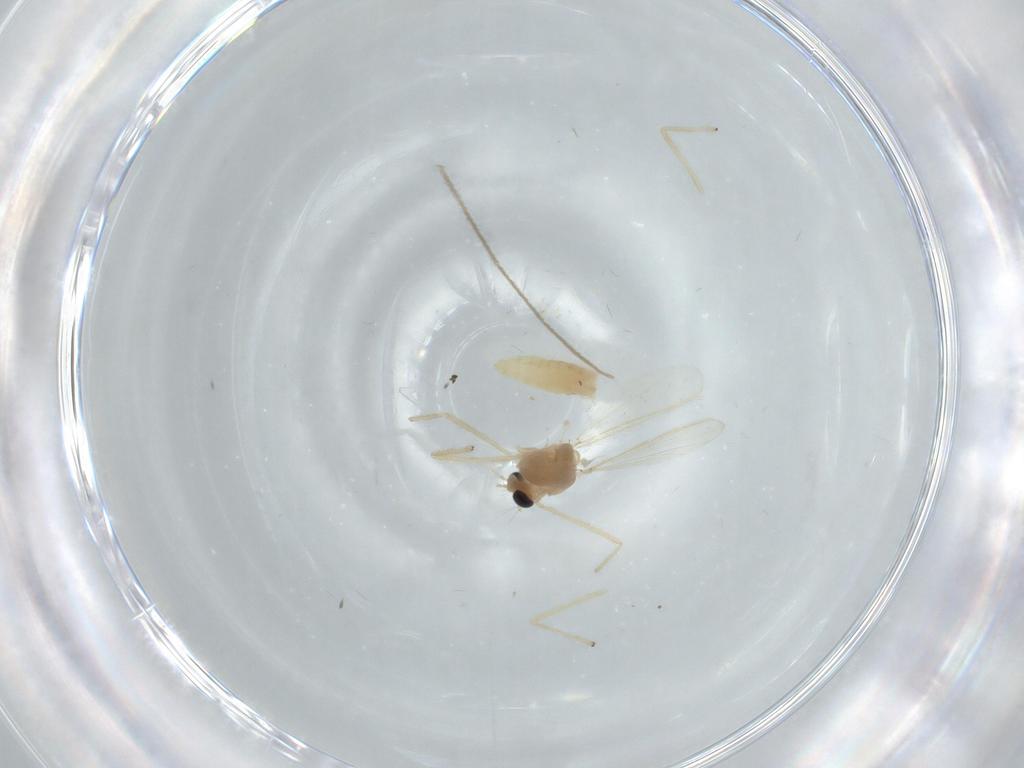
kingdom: Animalia
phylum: Arthropoda
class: Insecta
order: Diptera
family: Chironomidae
